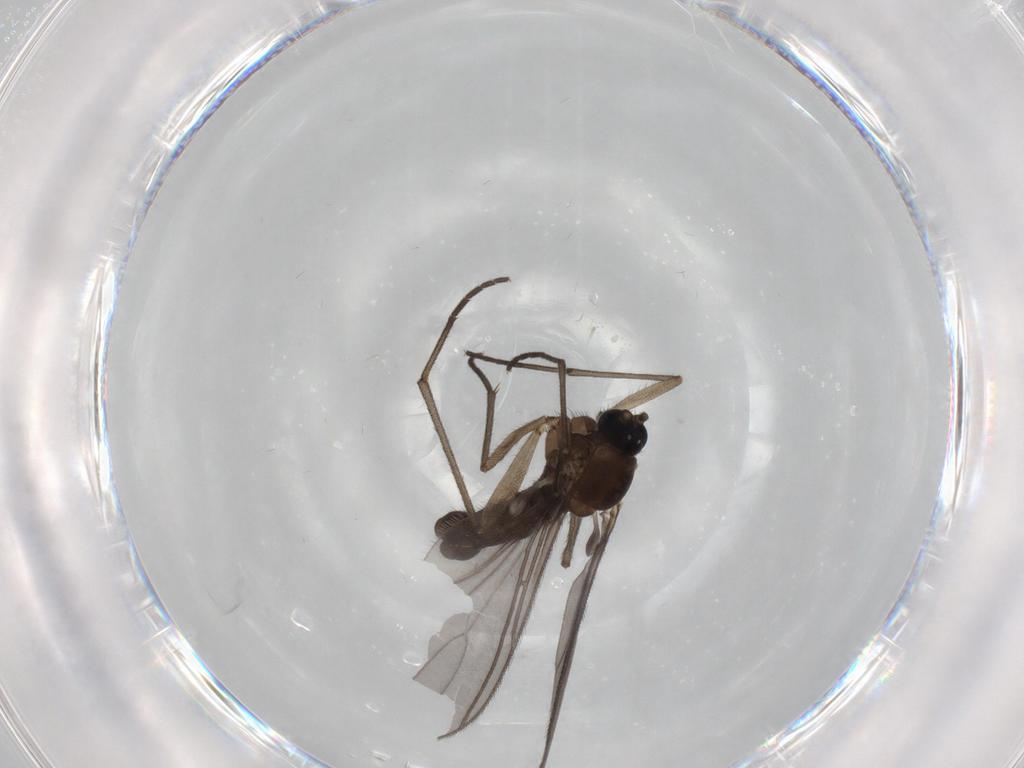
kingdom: Animalia
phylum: Arthropoda
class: Insecta
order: Diptera
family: Sciaridae
